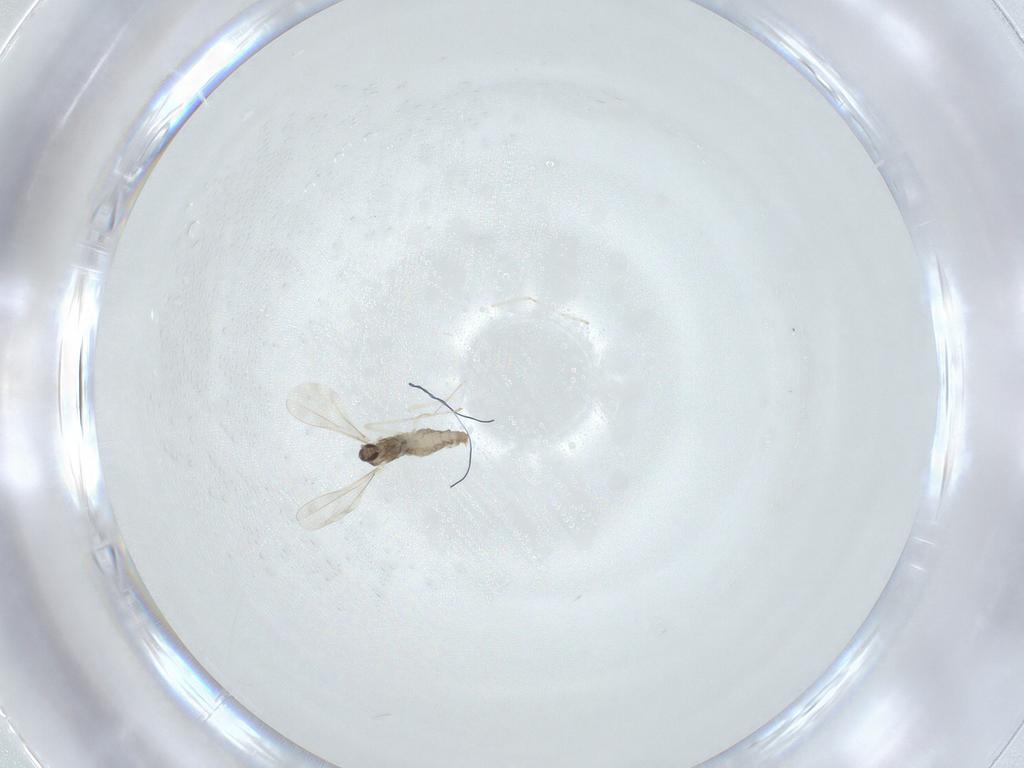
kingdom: Animalia
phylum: Arthropoda
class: Insecta
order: Diptera
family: Cecidomyiidae
